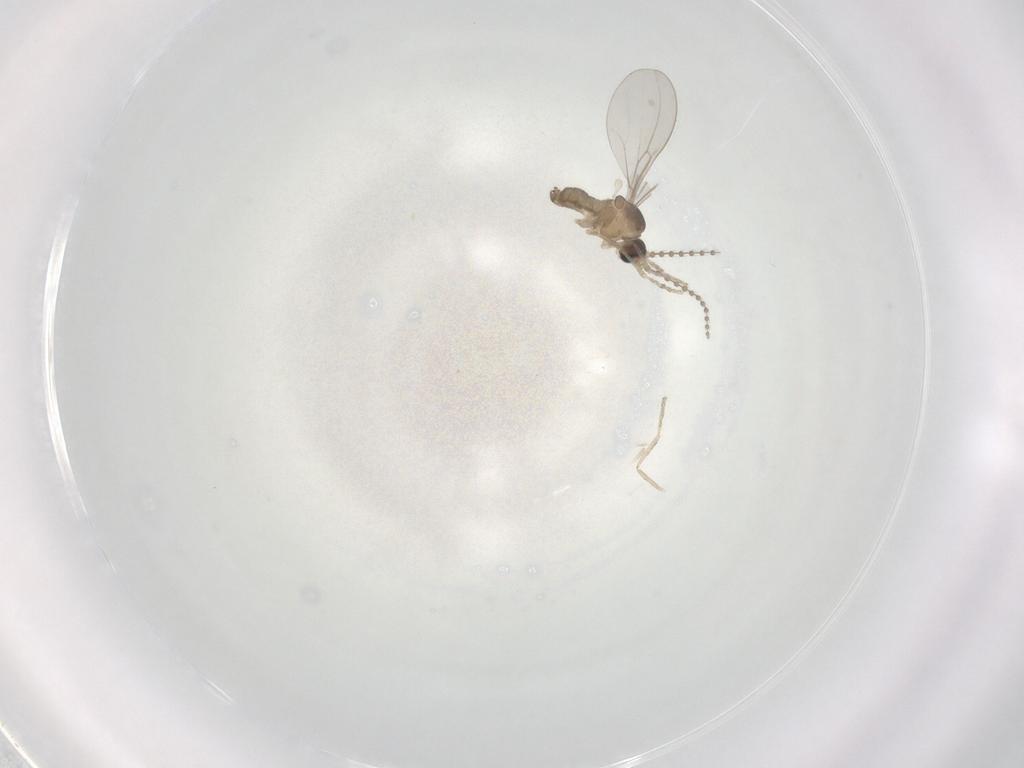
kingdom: Animalia
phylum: Arthropoda
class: Insecta
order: Diptera
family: Cecidomyiidae
